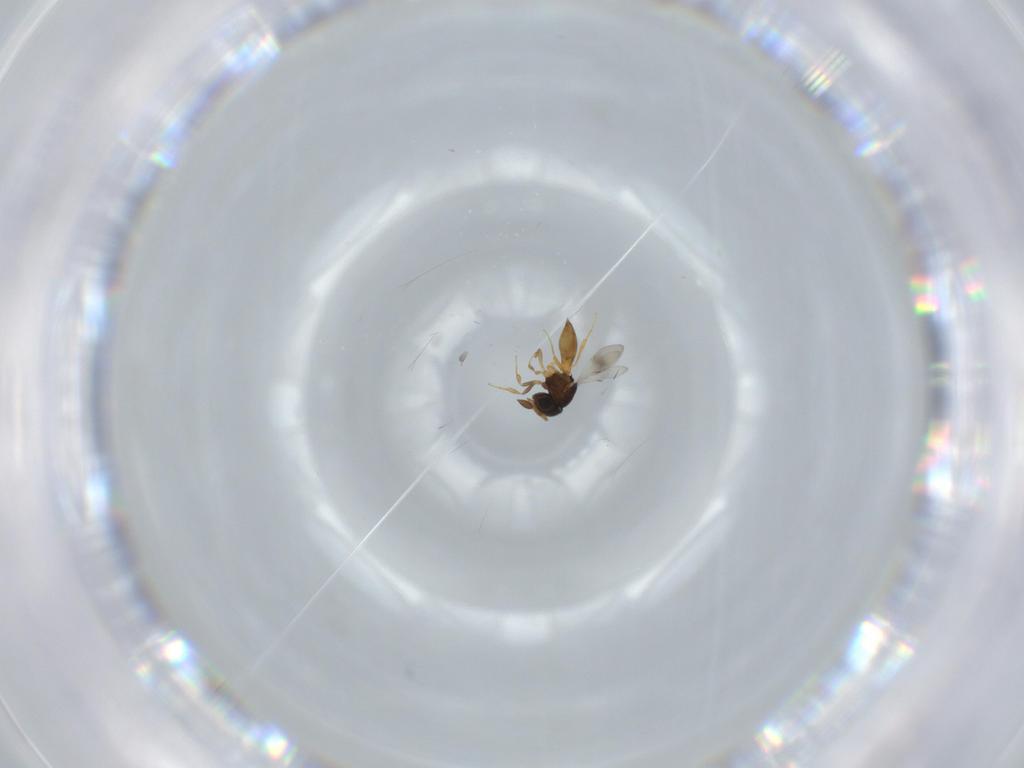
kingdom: Animalia
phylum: Arthropoda
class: Insecta
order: Hymenoptera
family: Scelionidae
